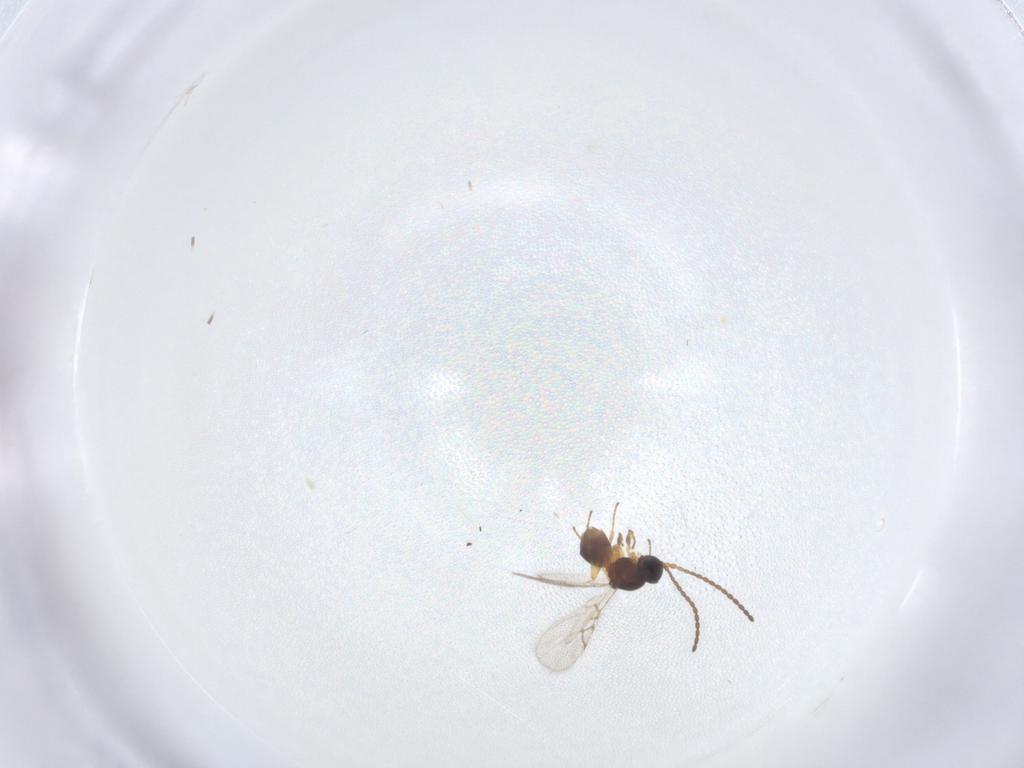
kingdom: Animalia
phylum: Arthropoda
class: Insecta
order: Hymenoptera
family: Figitidae
